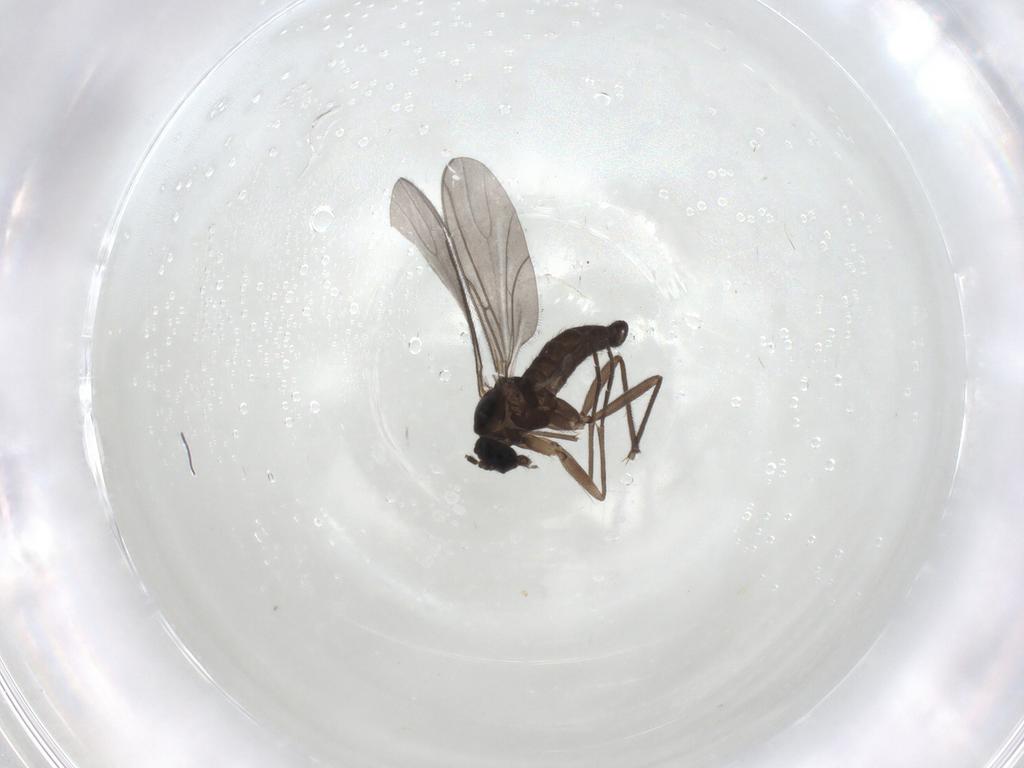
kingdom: Animalia
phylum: Arthropoda
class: Insecta
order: Diptera
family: Sciaridae
